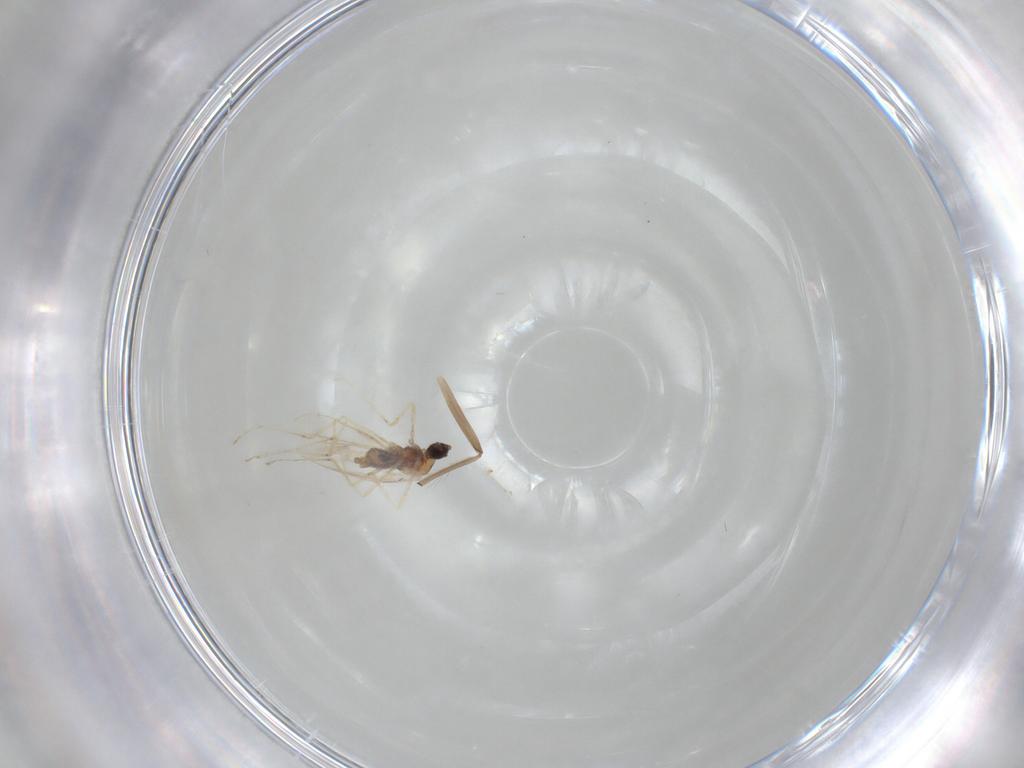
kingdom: Animalia
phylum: Arthropoda
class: Insecta
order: Diptera
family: Cecidomyiidae
